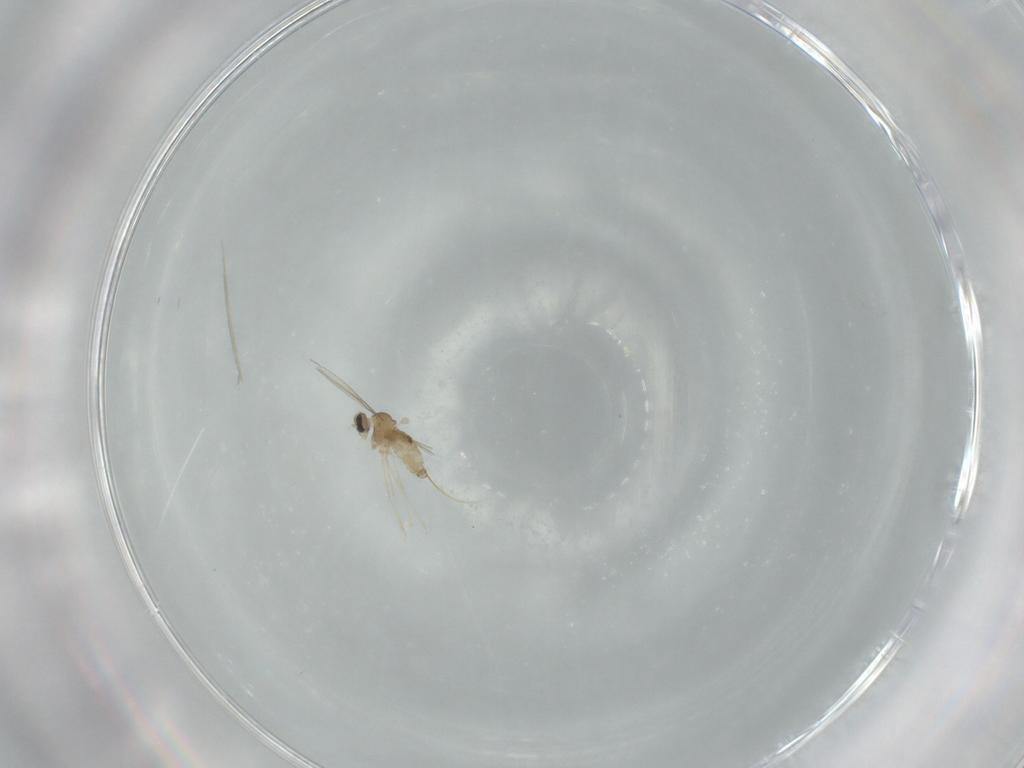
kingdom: Animalia
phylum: Arthropoda
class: Insecta
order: Diptera
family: Cecidomyiidae
